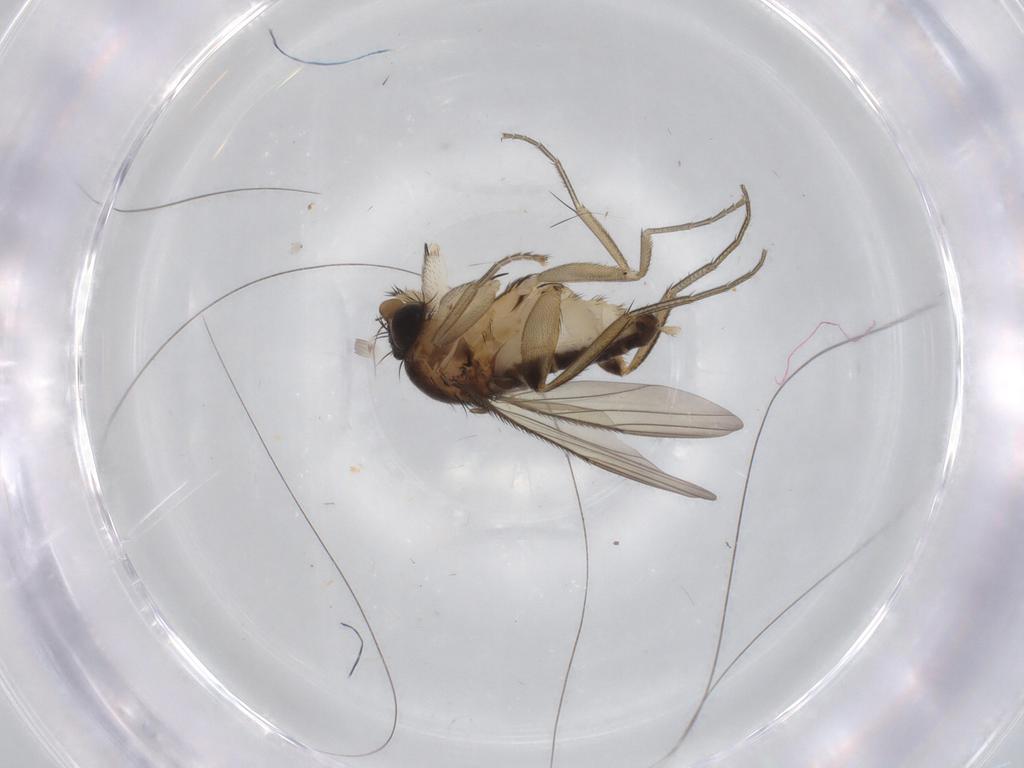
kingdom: Animalia
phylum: Arthropoda
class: Insecta
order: Diptera
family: Phoridae
